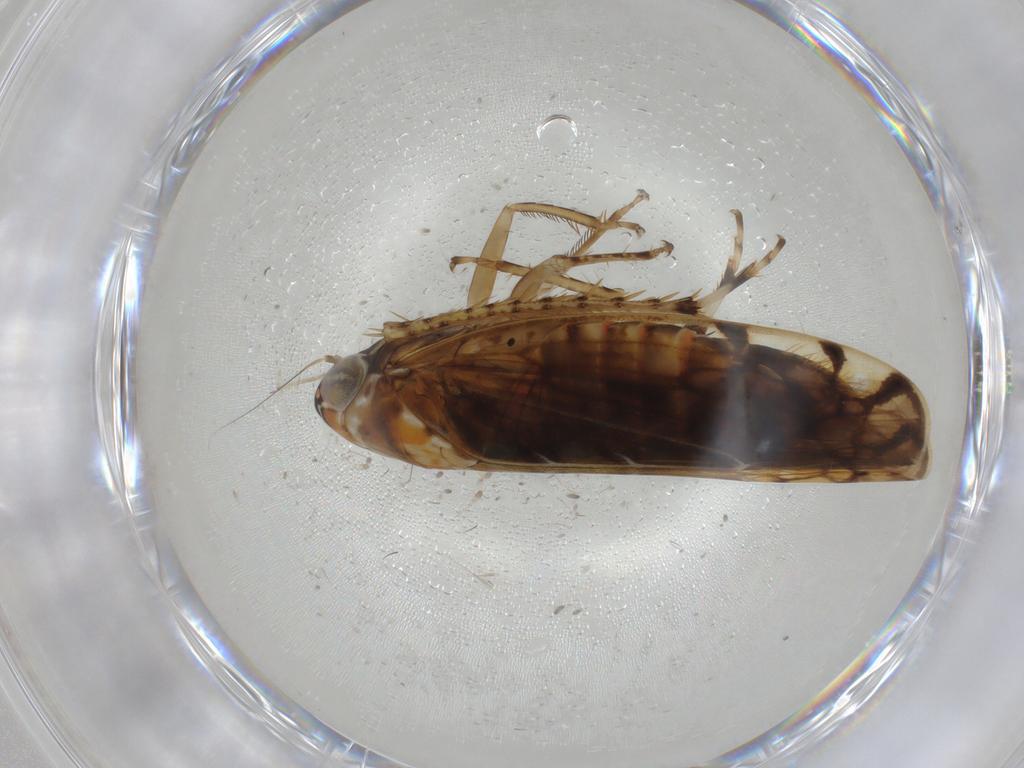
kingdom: Animalia
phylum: Arthropoda
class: Insecta
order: Hemiptera
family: Cicadellidae
